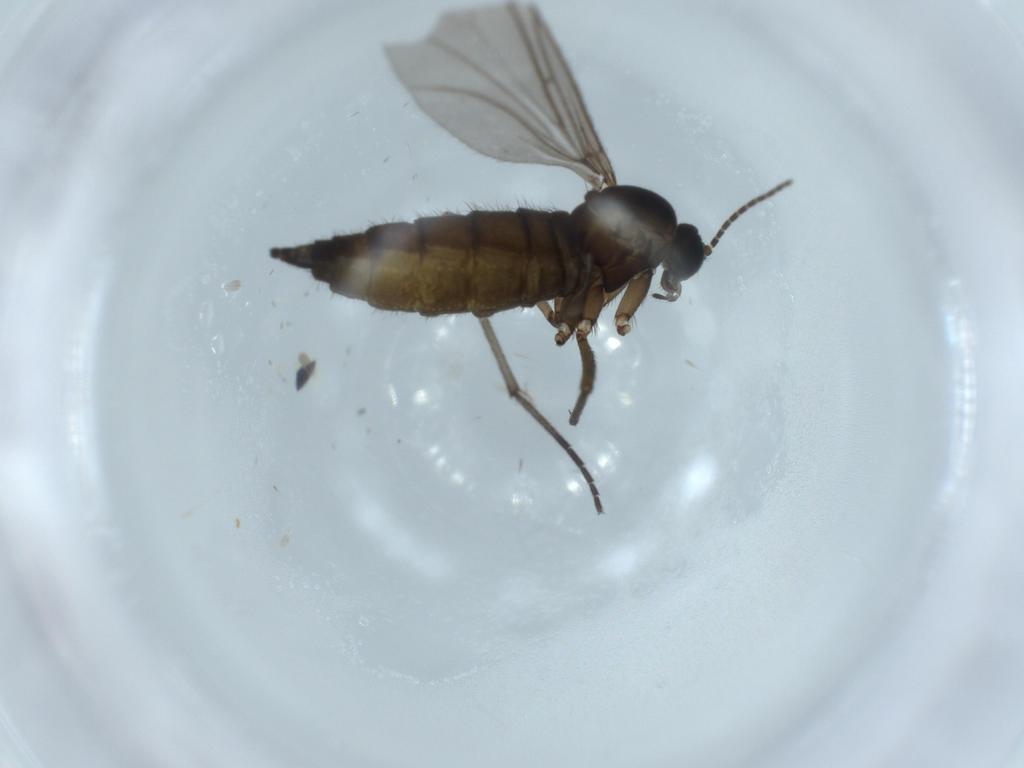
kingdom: Animalia
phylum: Arthropoda
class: Insecta
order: Diptera
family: Sciaridae
